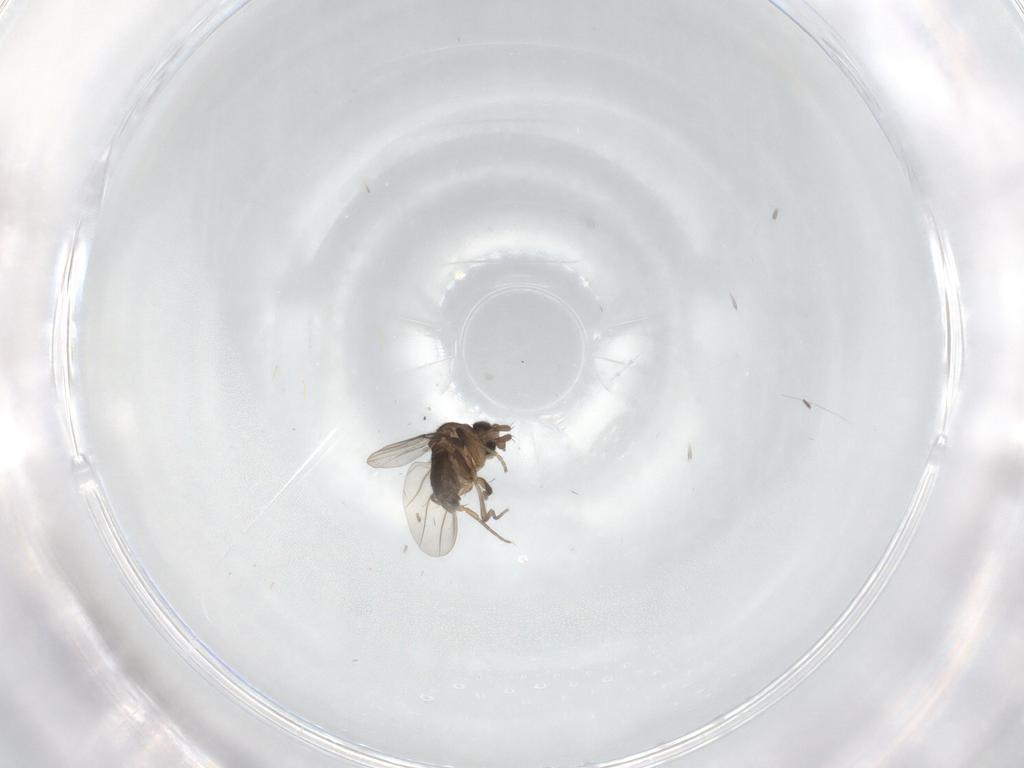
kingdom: Animalia
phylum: Arthropoda
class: Insecta
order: Diptera
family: Phoridae
